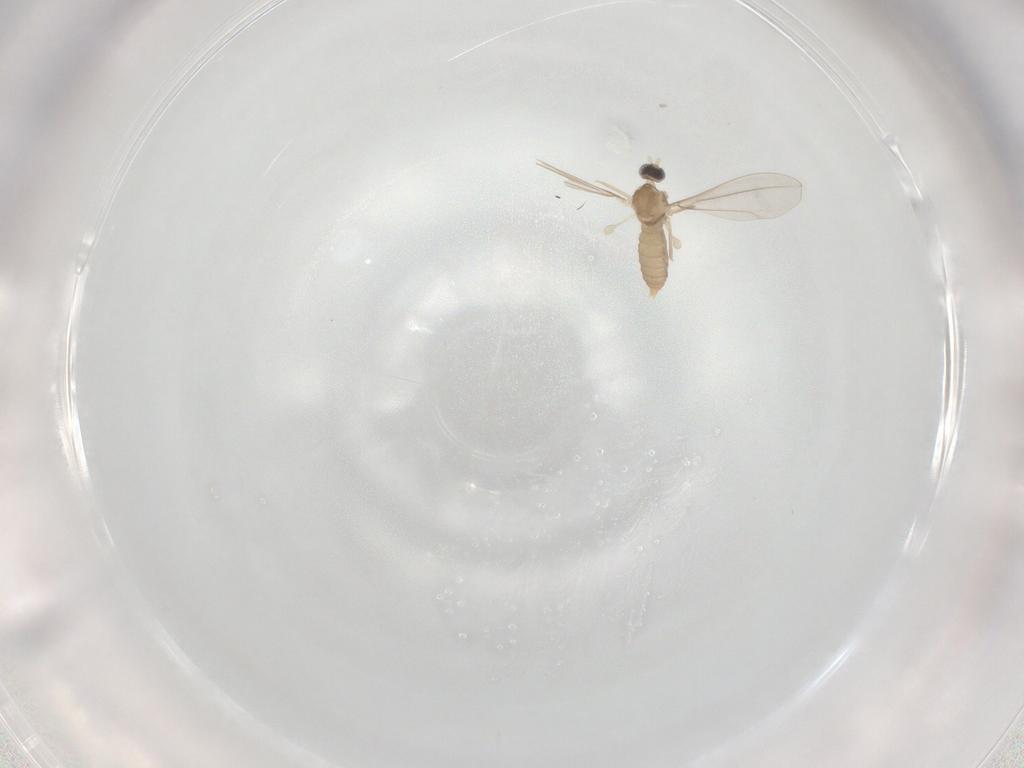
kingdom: Animalia
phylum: Arthropoda
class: Insecta
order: Diptera
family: Cecidomyiidae
